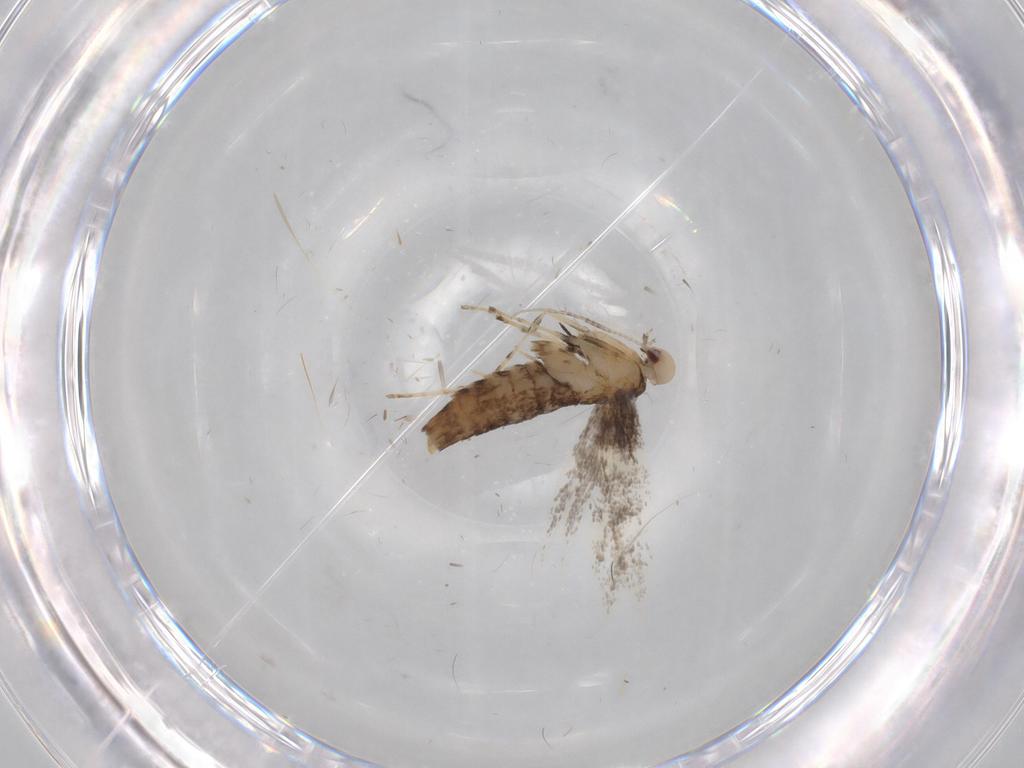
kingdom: Animalia
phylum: Arthropoda
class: Insecta
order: Lepidoptera
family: Gracillariidae
